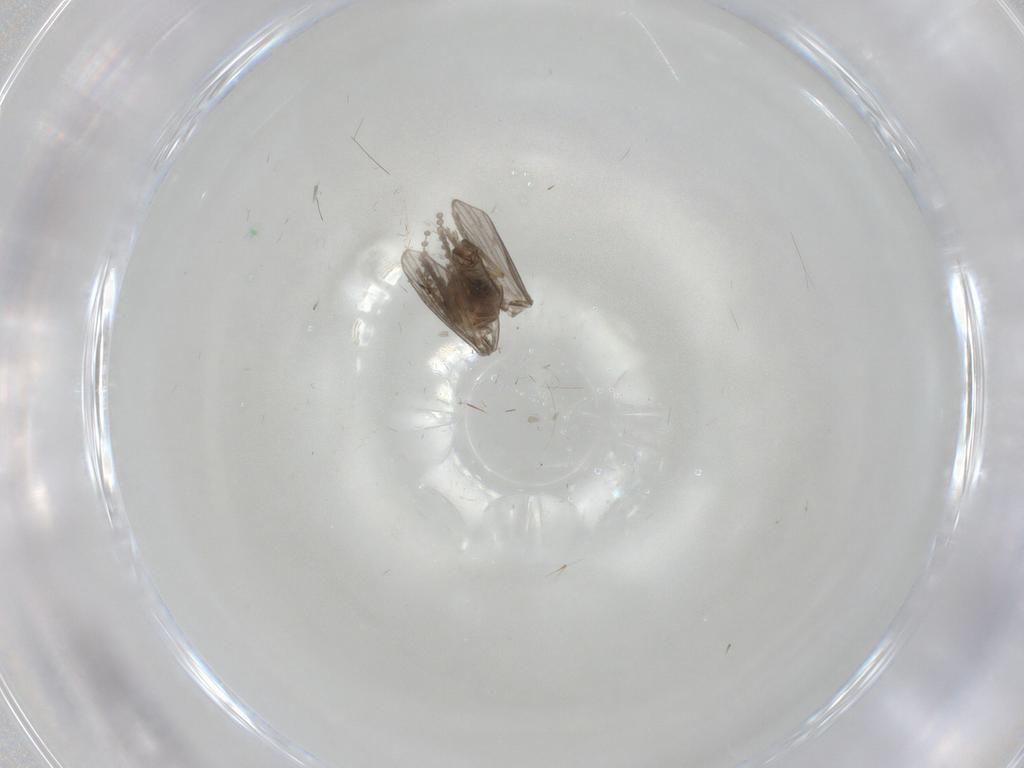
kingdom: Animalia
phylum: Arthropoda
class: Insecta
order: Diptera
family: Psychodidae
